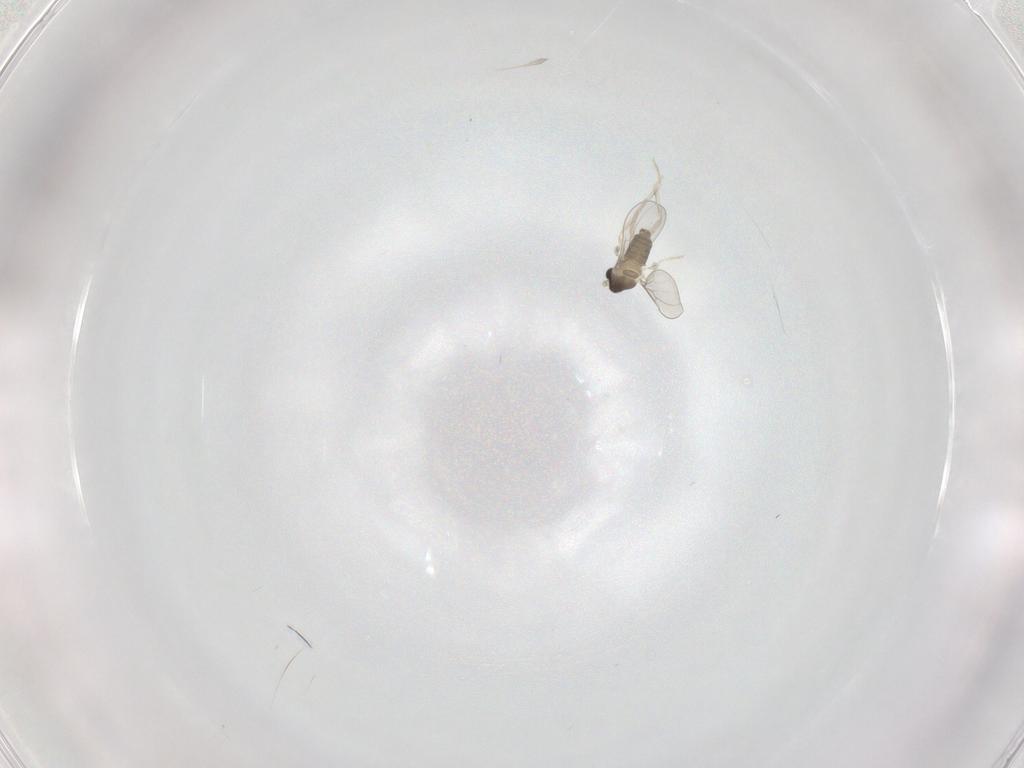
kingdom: Animalia
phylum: Arthropoda
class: Insecta
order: Diptera
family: Cecidomyiidae
